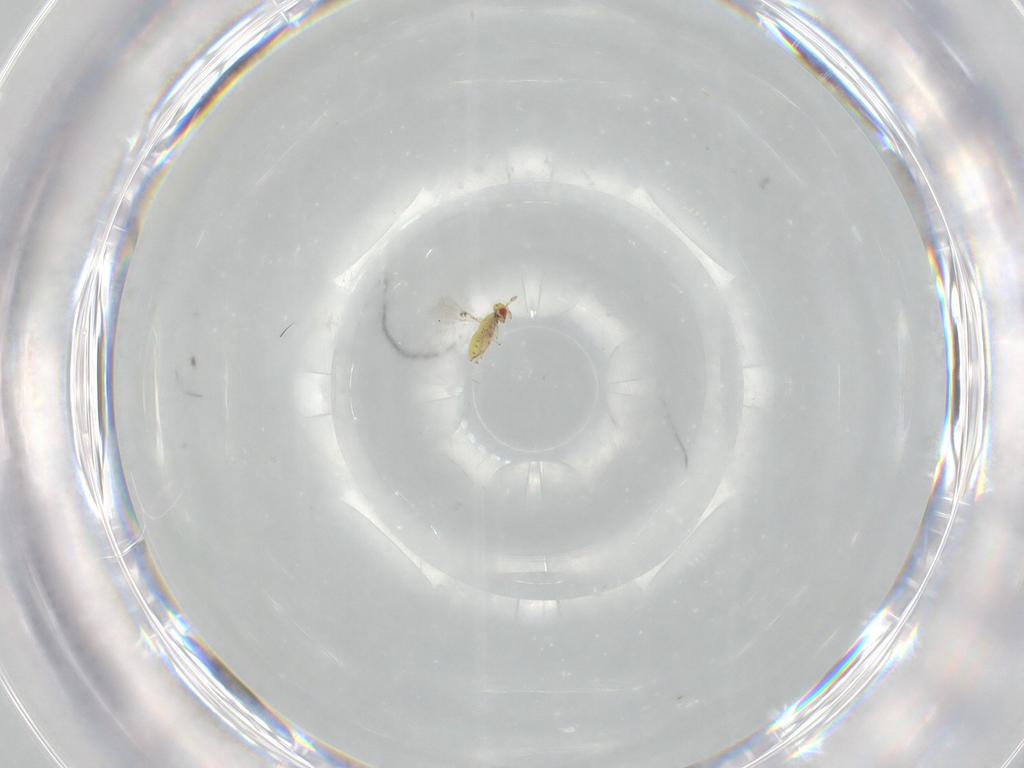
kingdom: Animalia
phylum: Arthropoda
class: Insecta
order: Hymenoptera
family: Trichogrammatidae
